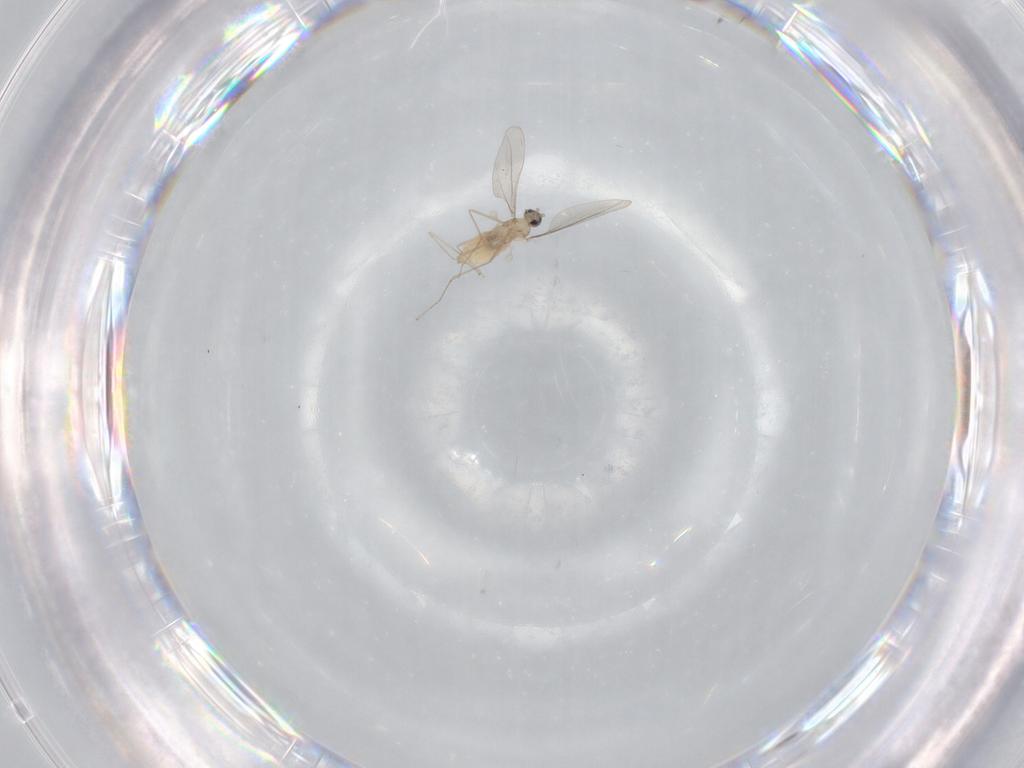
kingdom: Animalia
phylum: Arthropoda
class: Insecta
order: Diptera
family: Cecidomyiidae
